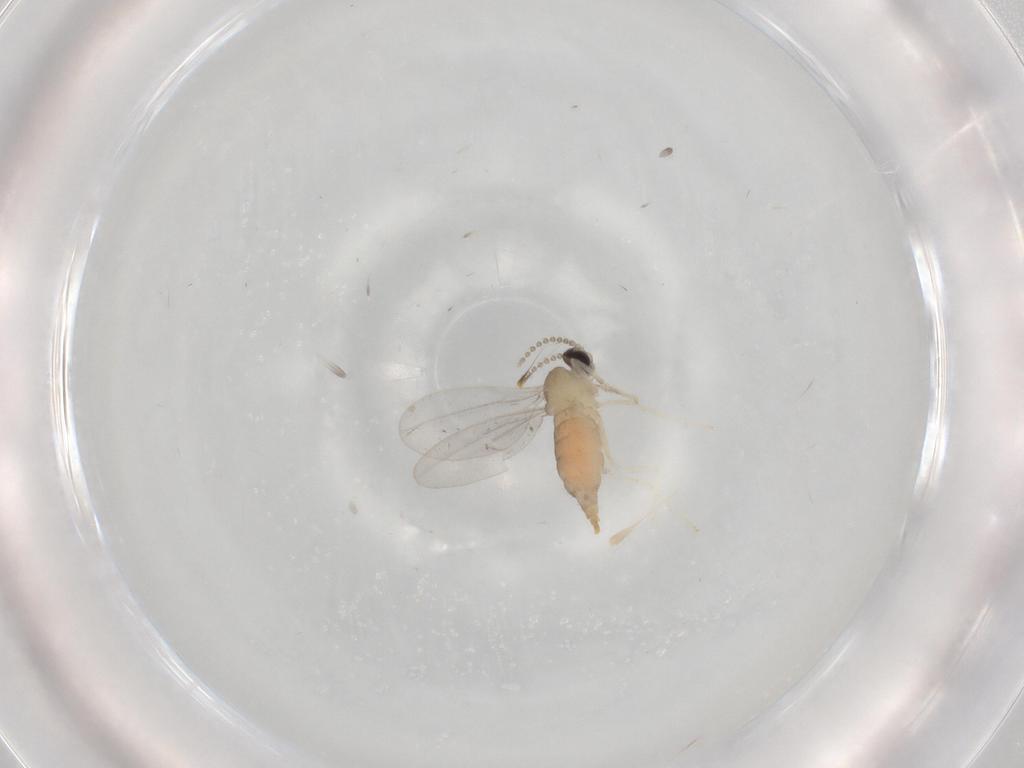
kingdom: Animalia
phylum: Arthropoda
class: Insecta
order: Diptera
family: Cecidomyiidae
